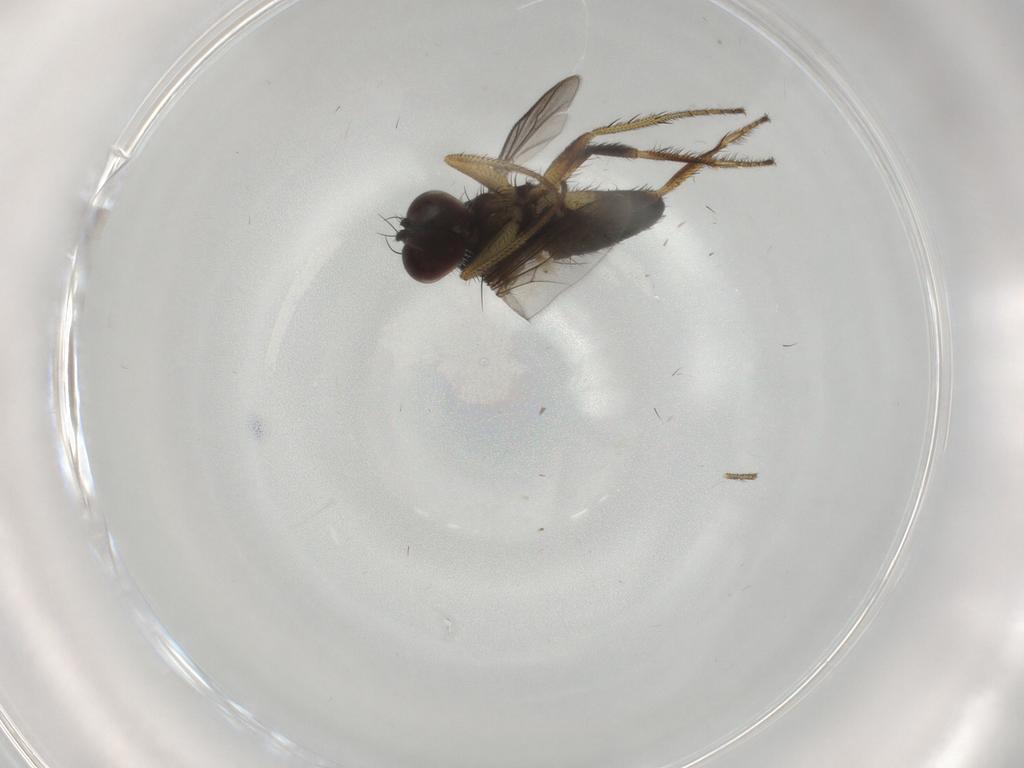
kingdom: Animalia
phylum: Arthropoda
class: Insecta
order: Diptera
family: Dolichopodidae
